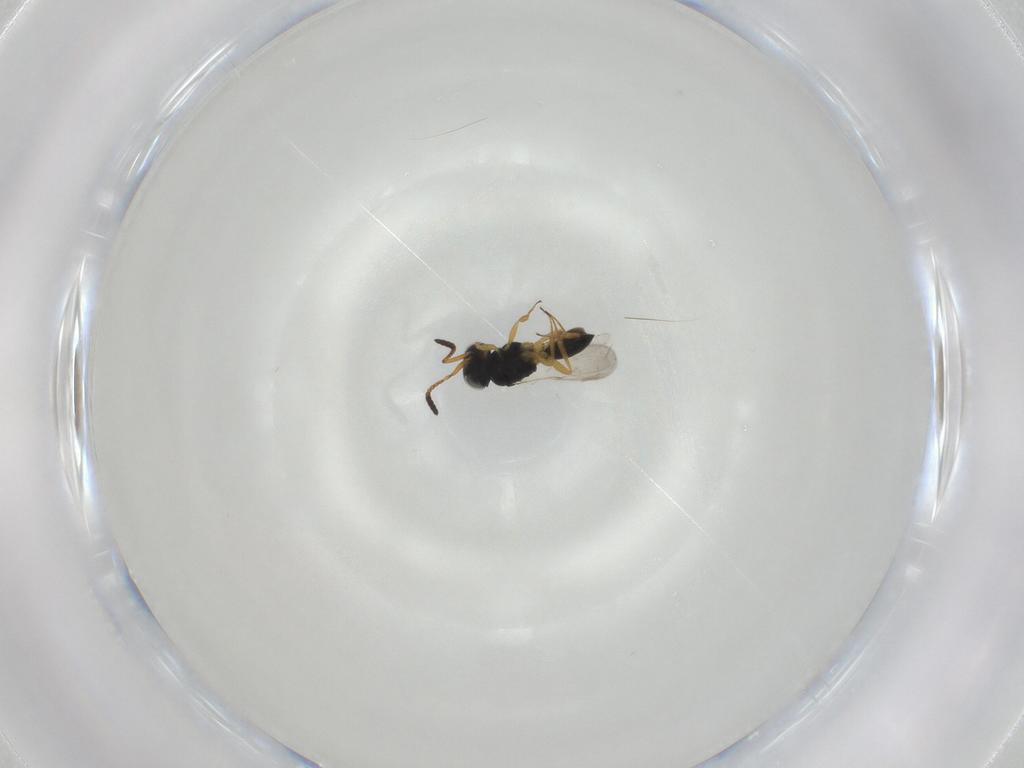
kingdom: Animalia
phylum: Arthropoda
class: Insecta
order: Hymenoptera
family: Scelionidae
